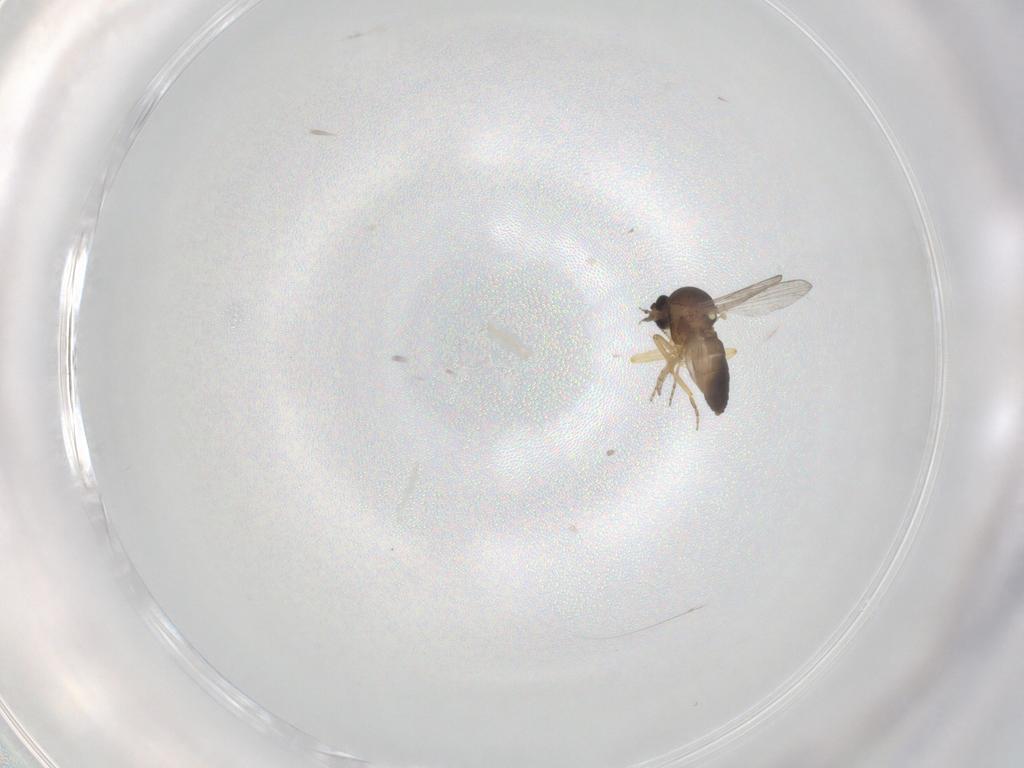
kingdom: Animalia
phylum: Arthropoda
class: Insecta
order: Diptera
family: Ceratopogonidae
